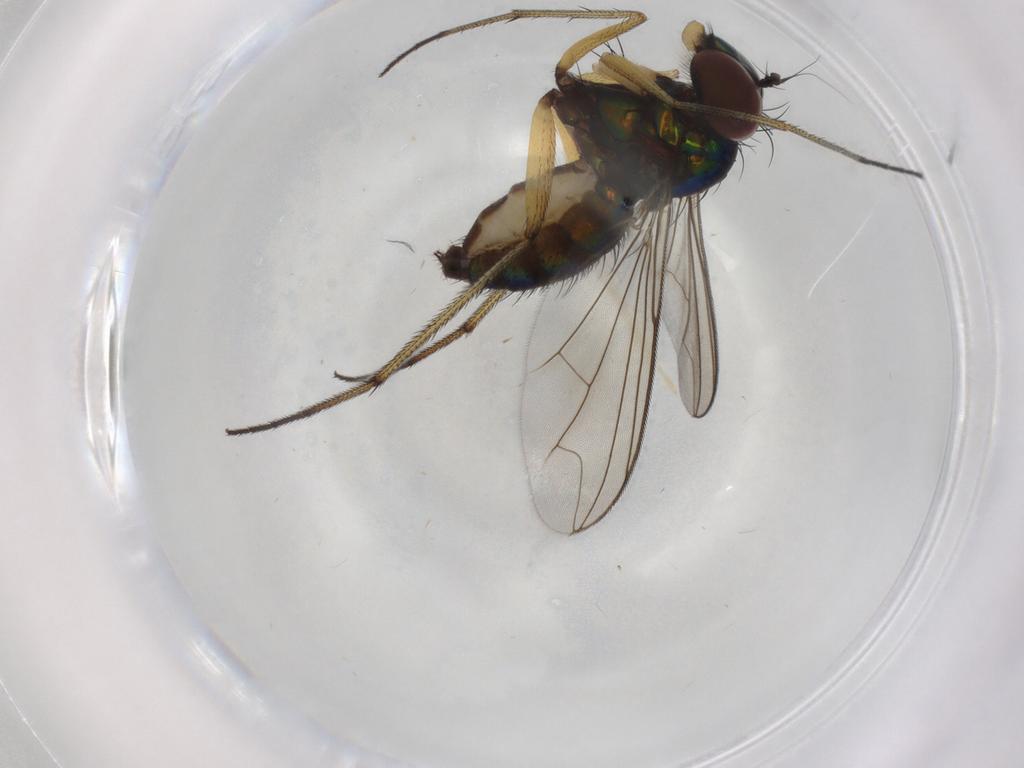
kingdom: Animalia
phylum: Arthropoda
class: Insecta
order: Diptera
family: Dolichopodidae
